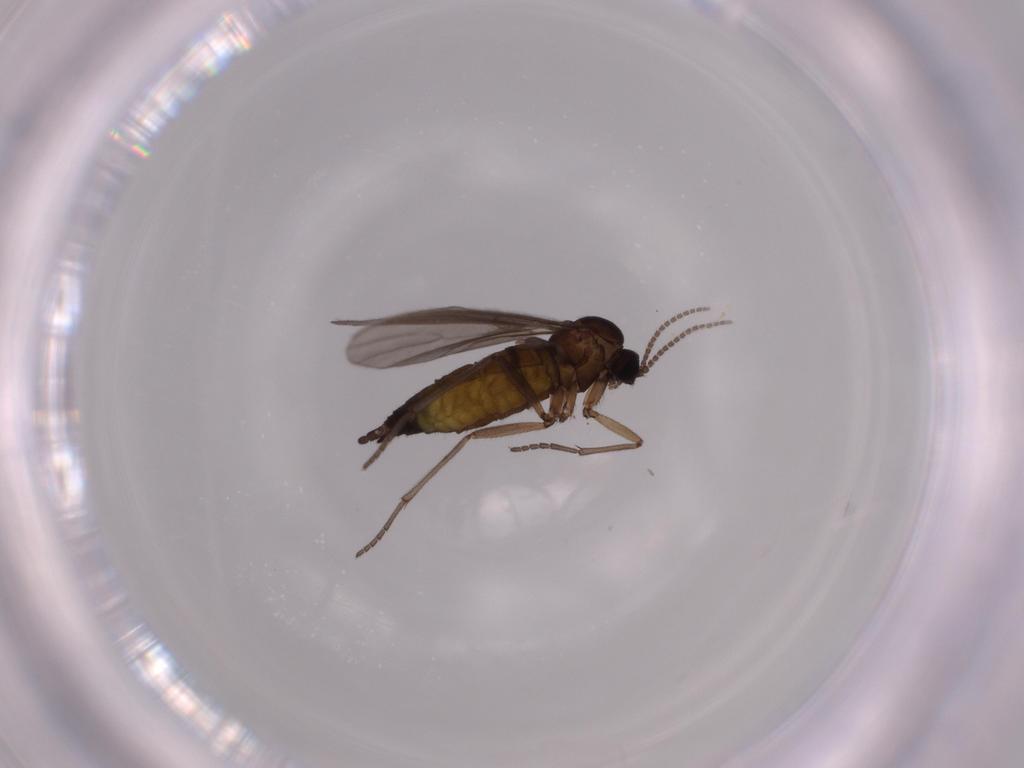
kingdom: Animalia
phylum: Arthropoda
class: Insecta
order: Diptera
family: Sciaridae
